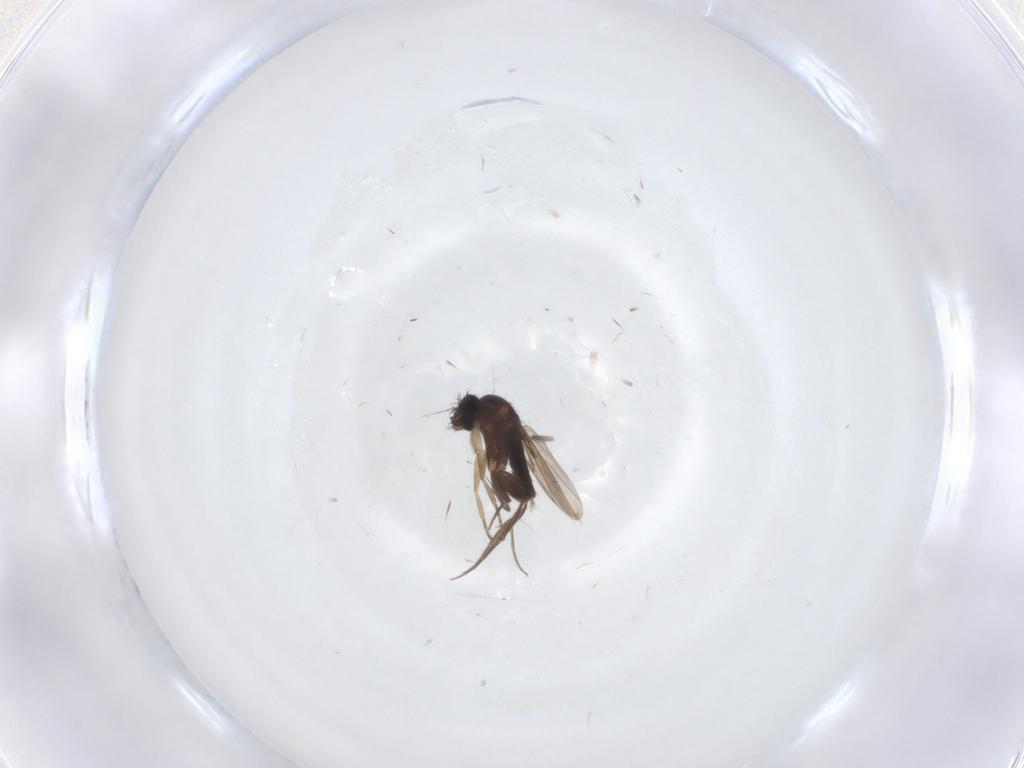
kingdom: Animalia
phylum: Arthropoda
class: Insecta
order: Diptera
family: Phoridae
